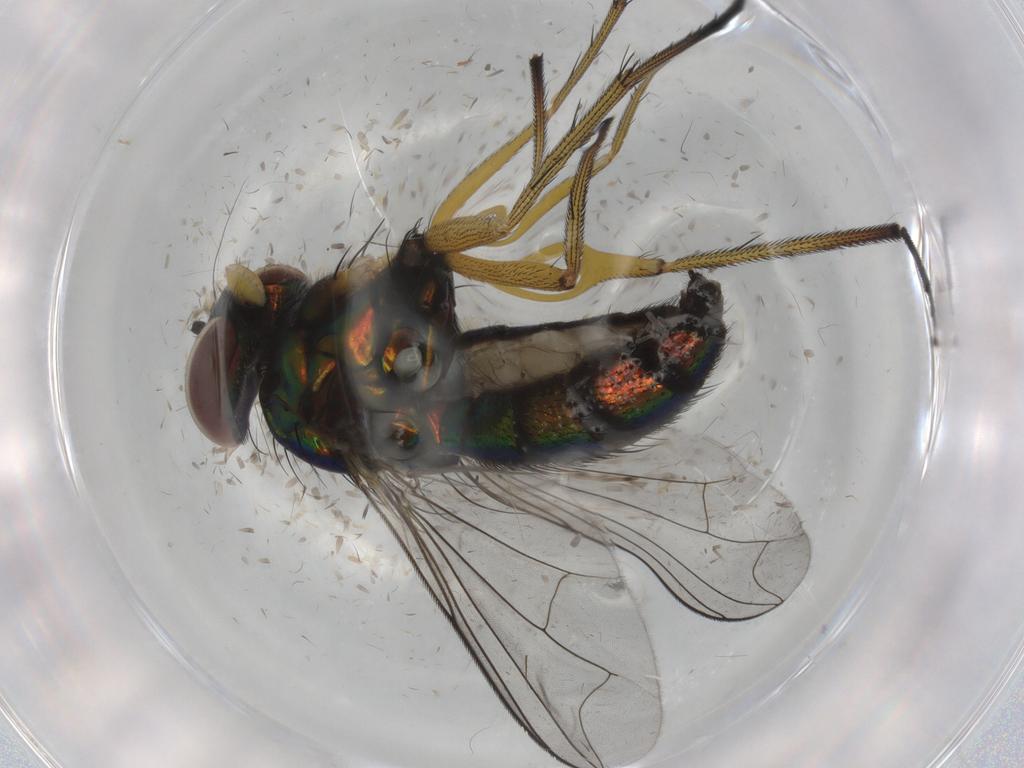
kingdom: Animalia
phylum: Arthropoda
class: Insecta
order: Diptera
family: Dolichopodidae
